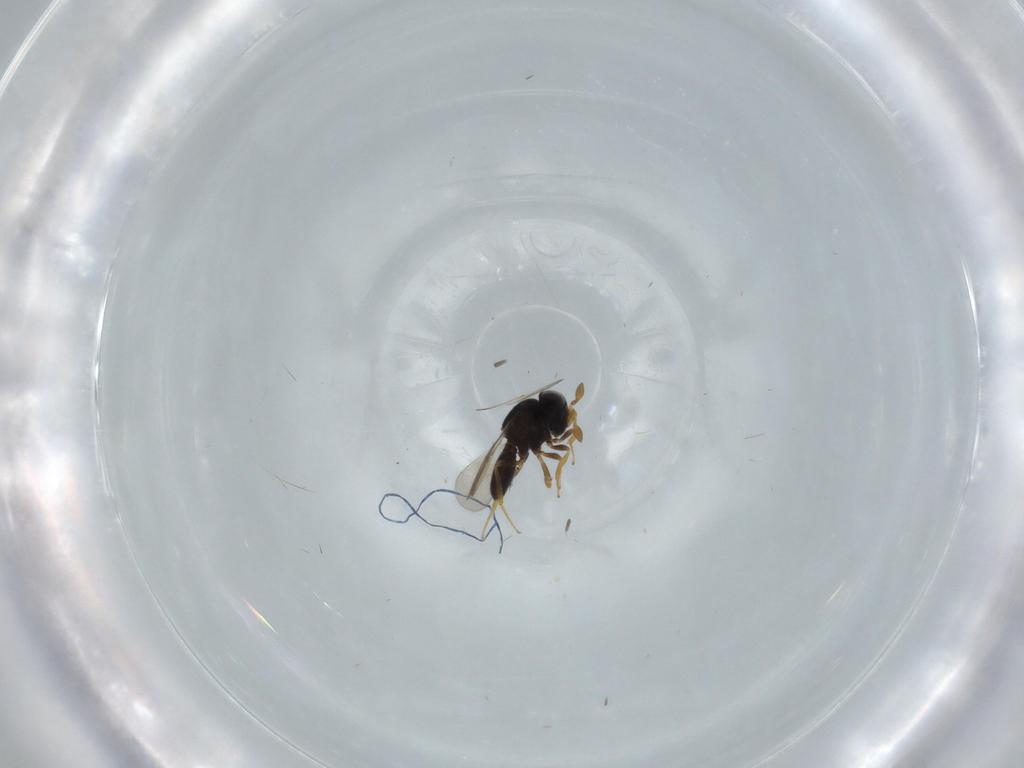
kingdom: Animalia
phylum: Arthropoda
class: Insecta
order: Hymenoptera
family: Scelionidae
